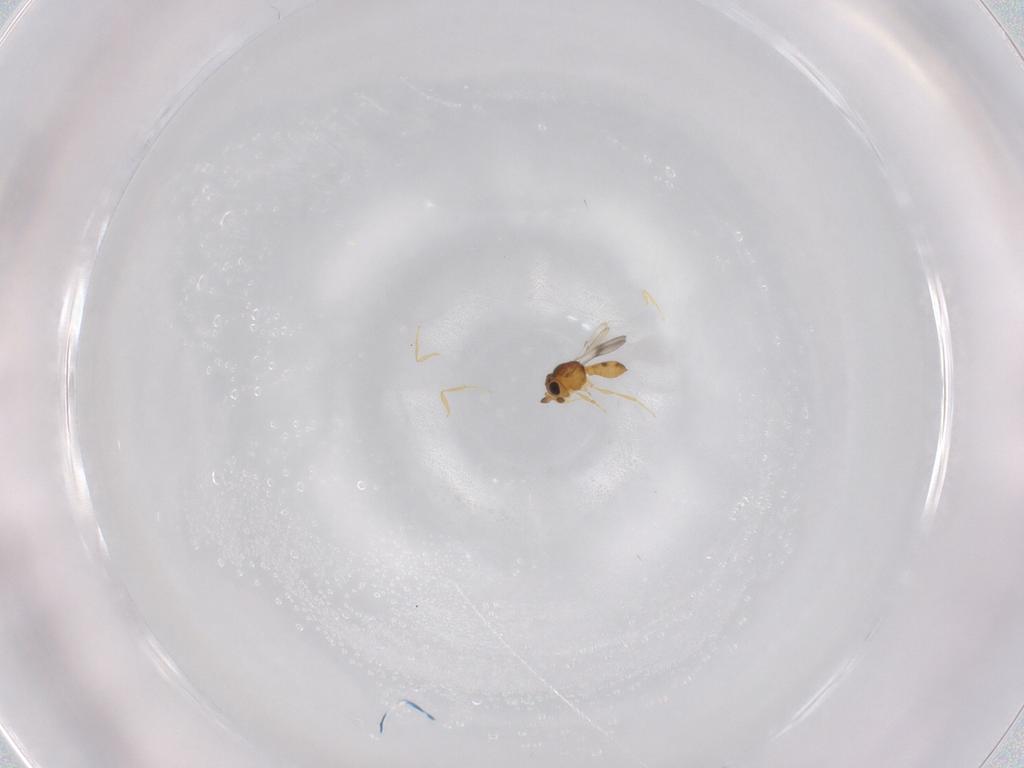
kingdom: Animalia
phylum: Arthropoda
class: Insecta
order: Hymenoptera
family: Scelionidae
